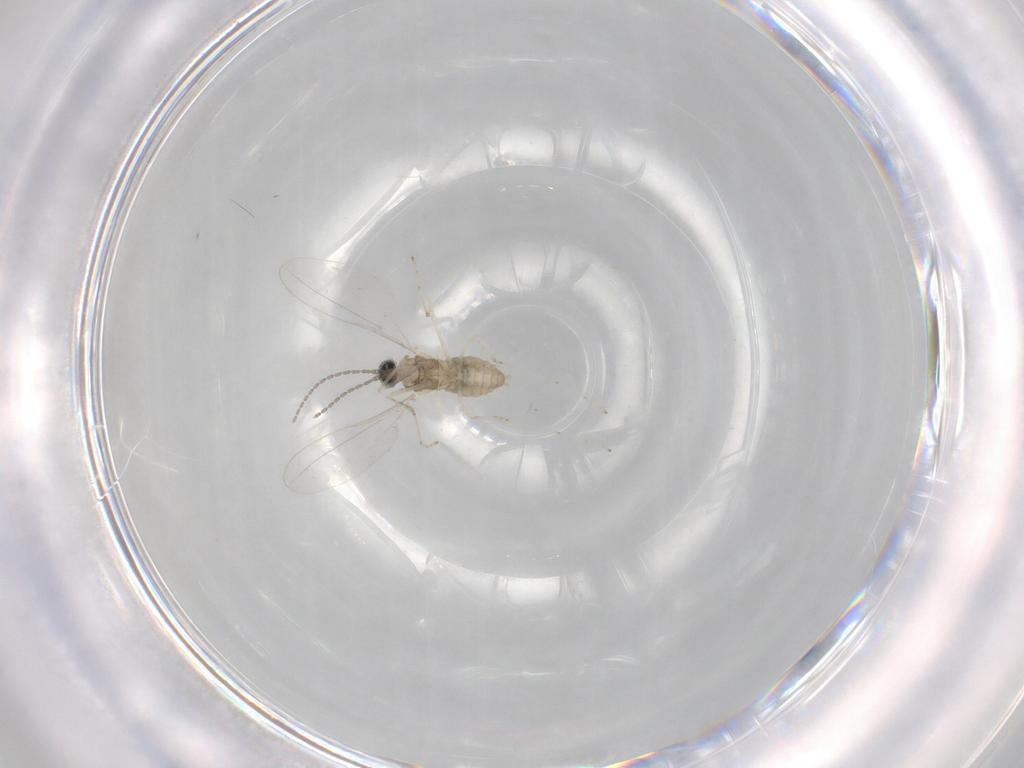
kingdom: Animalia
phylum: Arthropoda
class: Insecta
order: Diptera
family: Cecidomyiidae
